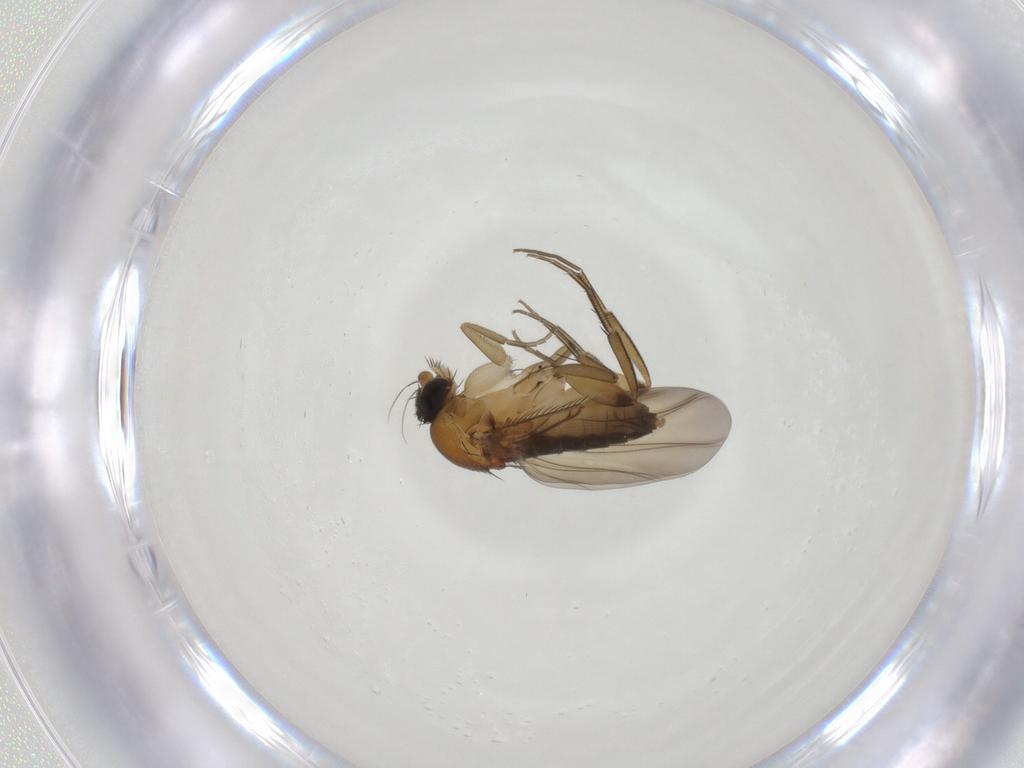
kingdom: Animalia
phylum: Arthropoda
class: Insecta
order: Diptera
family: Phoridae
